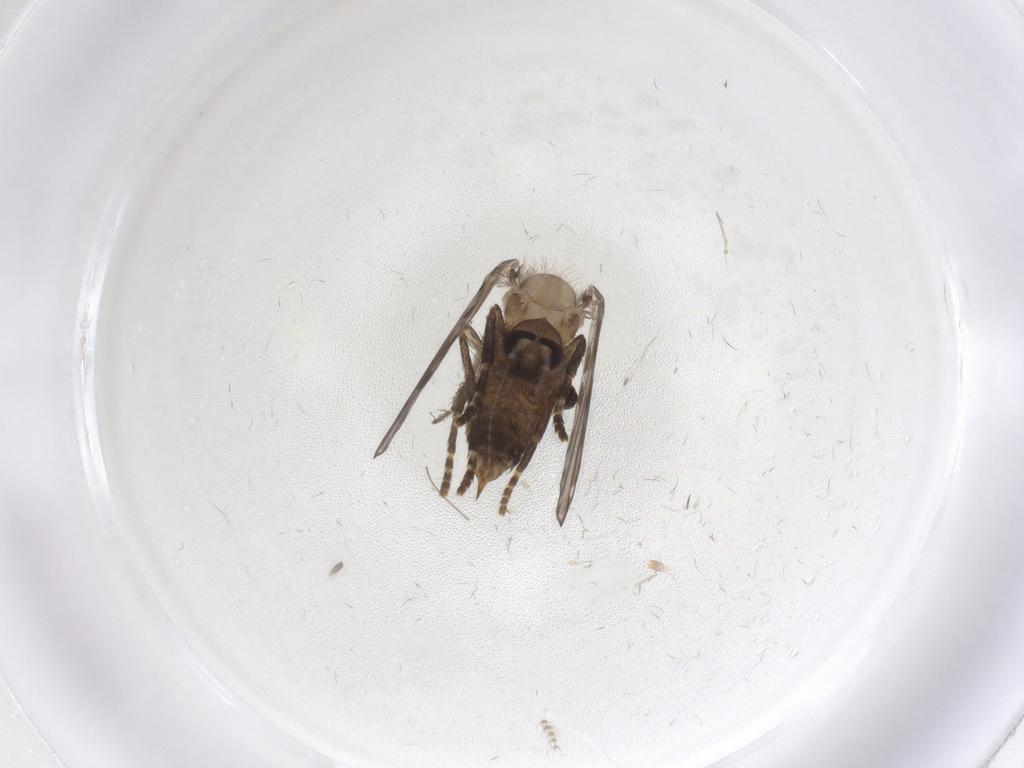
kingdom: Animalia
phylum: Arthropoda
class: Insecta
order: Diptera
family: Psychodidae
